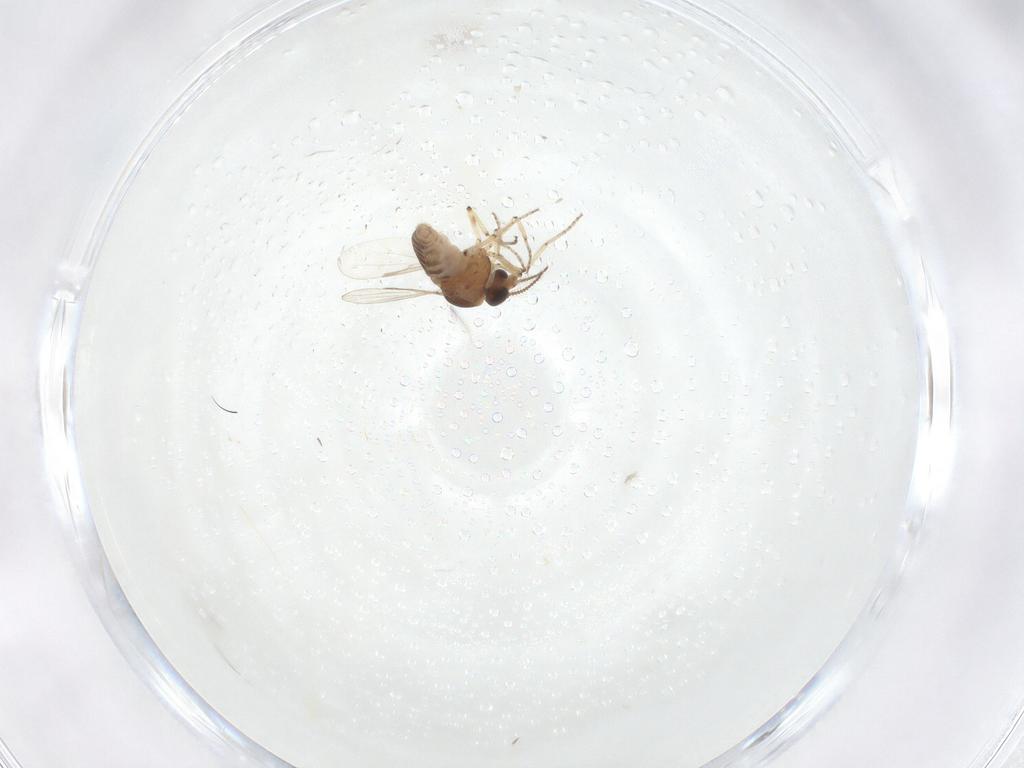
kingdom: Animalia
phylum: Arthropoda
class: Insecta
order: Diptera
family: Ceratopogonidae
